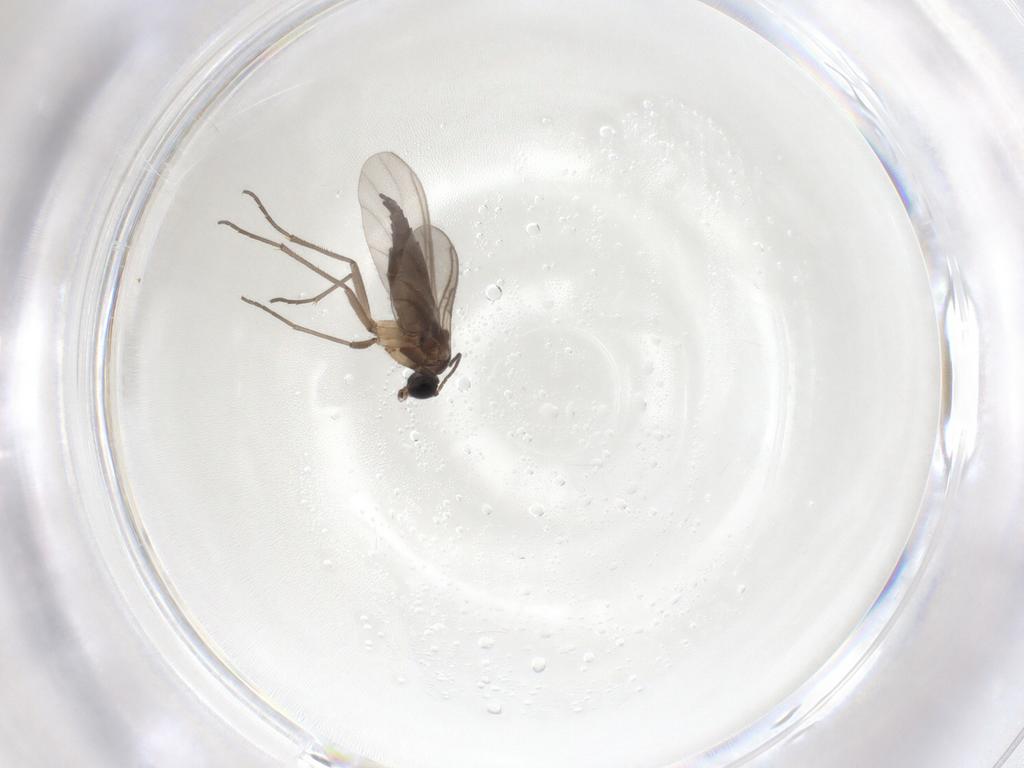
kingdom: Animalia
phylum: Arthropoda
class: Insecta
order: Diptera
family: Sciaridae
